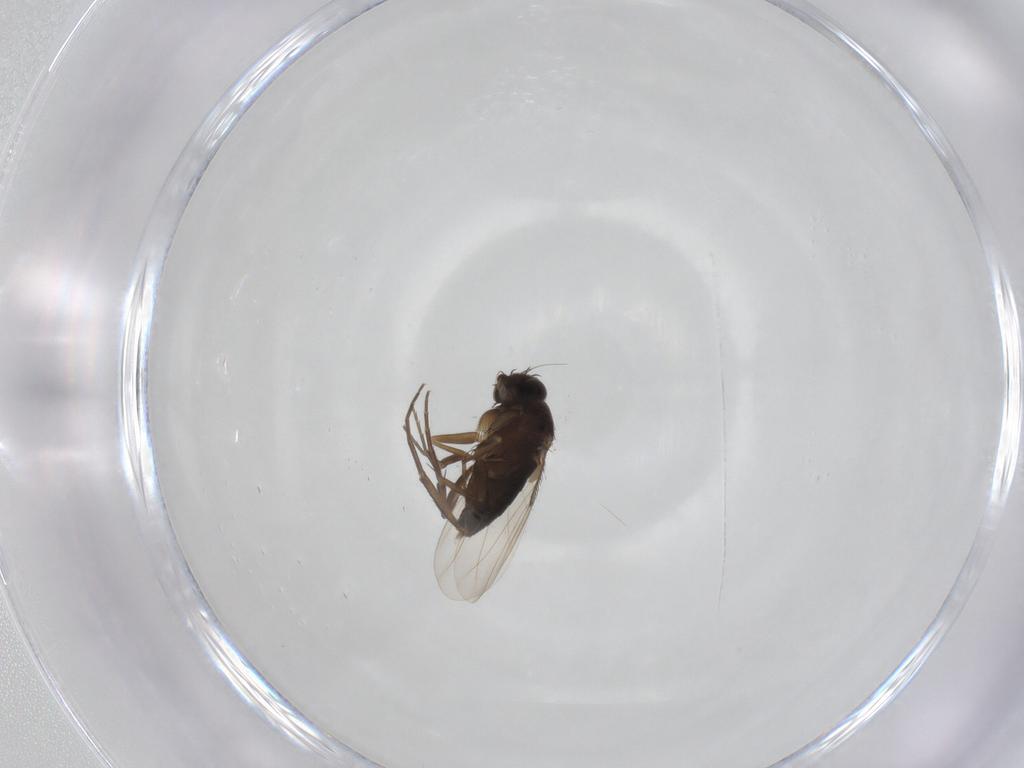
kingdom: Animalia
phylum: Arthropoda
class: Insecta
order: Diptera
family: Phoridae
